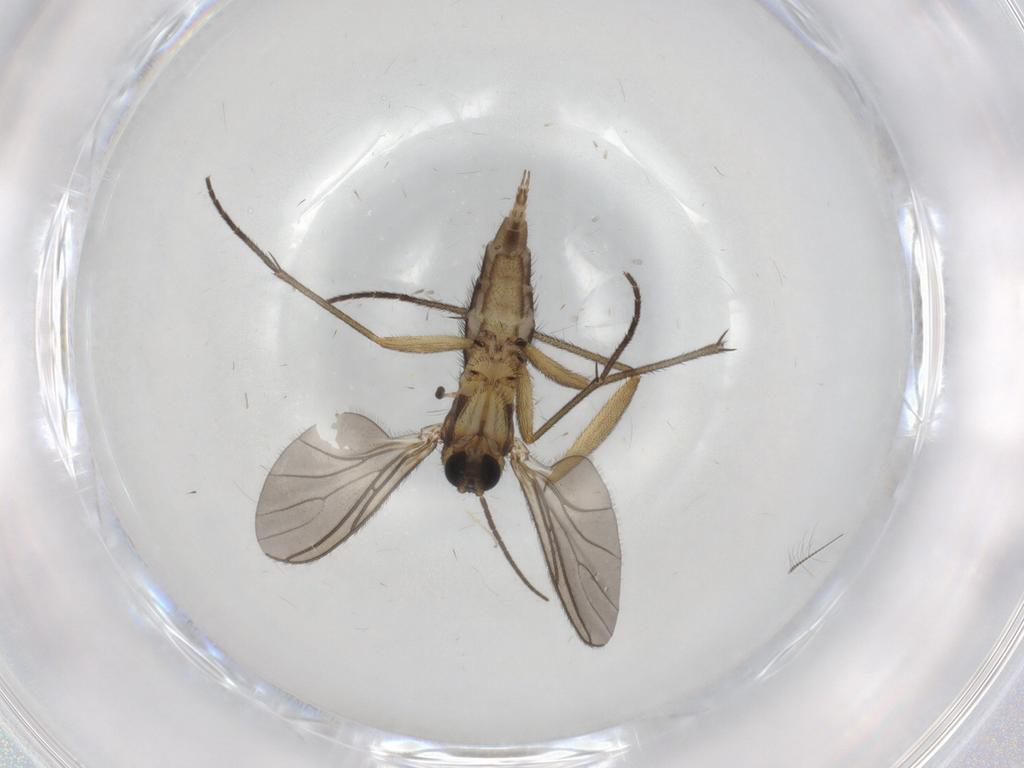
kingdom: Animalia
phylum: Arthropoda
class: Insecta
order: Diptera
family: Sciaridae
